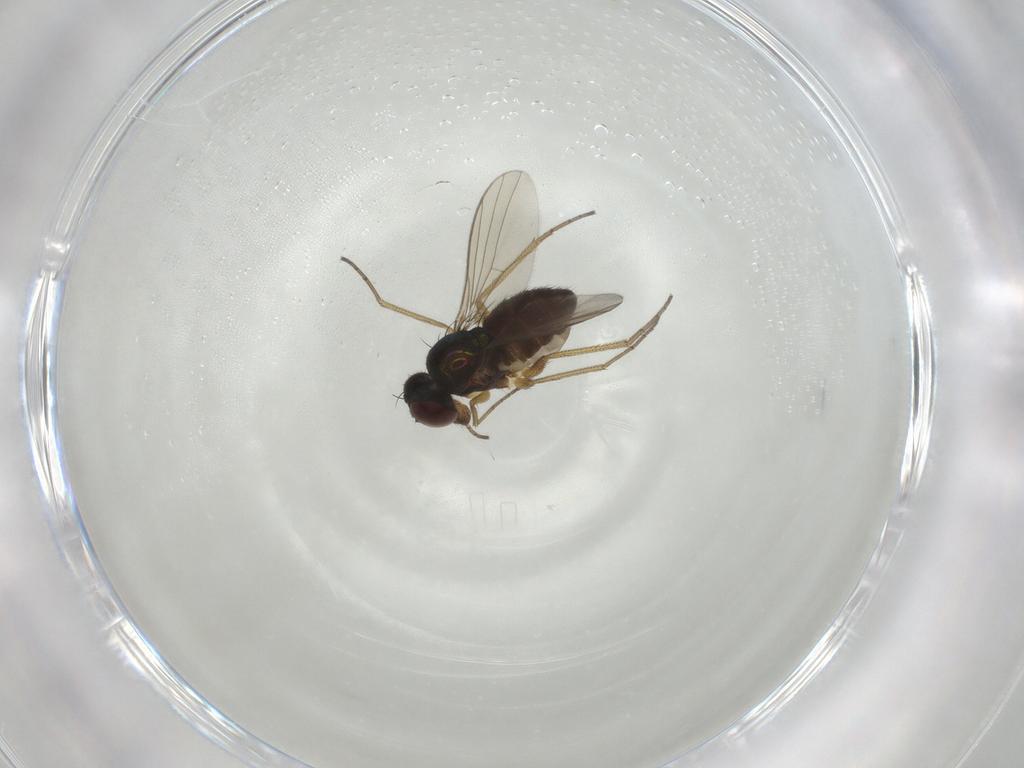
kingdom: Animalia
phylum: Arthropoda
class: Insecta
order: Diptera
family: Dolichopodidae
